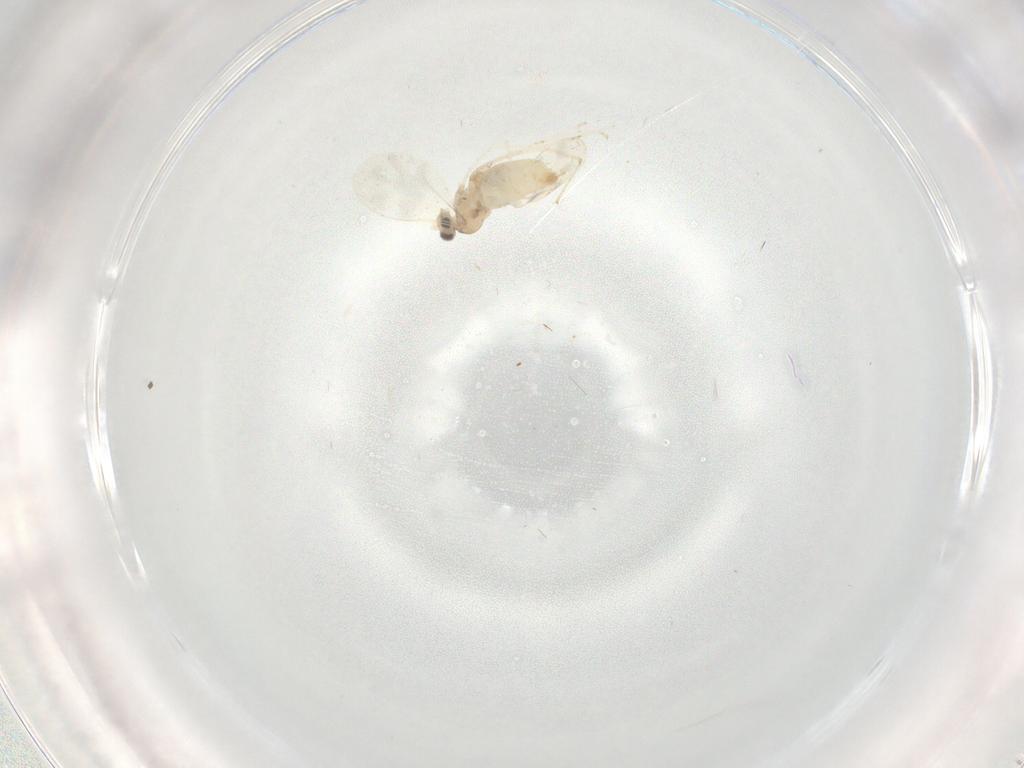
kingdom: Animalia
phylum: Arthropoda
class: Insecta
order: Diptera
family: Cecidomyiidae
